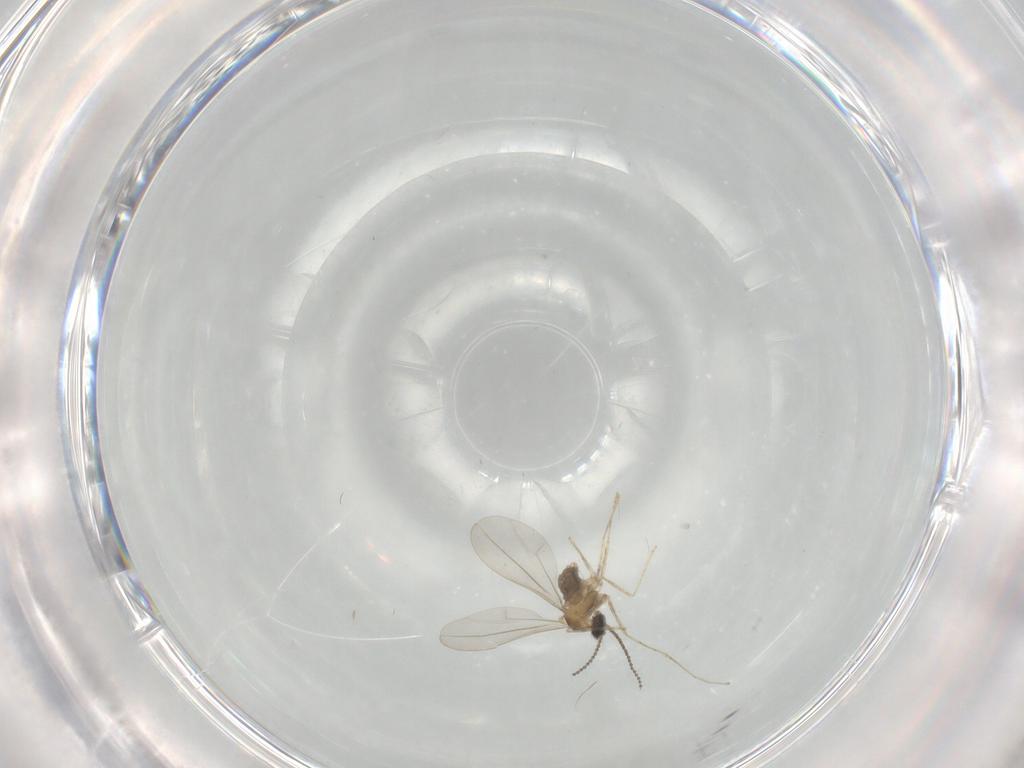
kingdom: Animalia
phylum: Arthropoda
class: Insecta
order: Diptera
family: Cecidomyiidae
